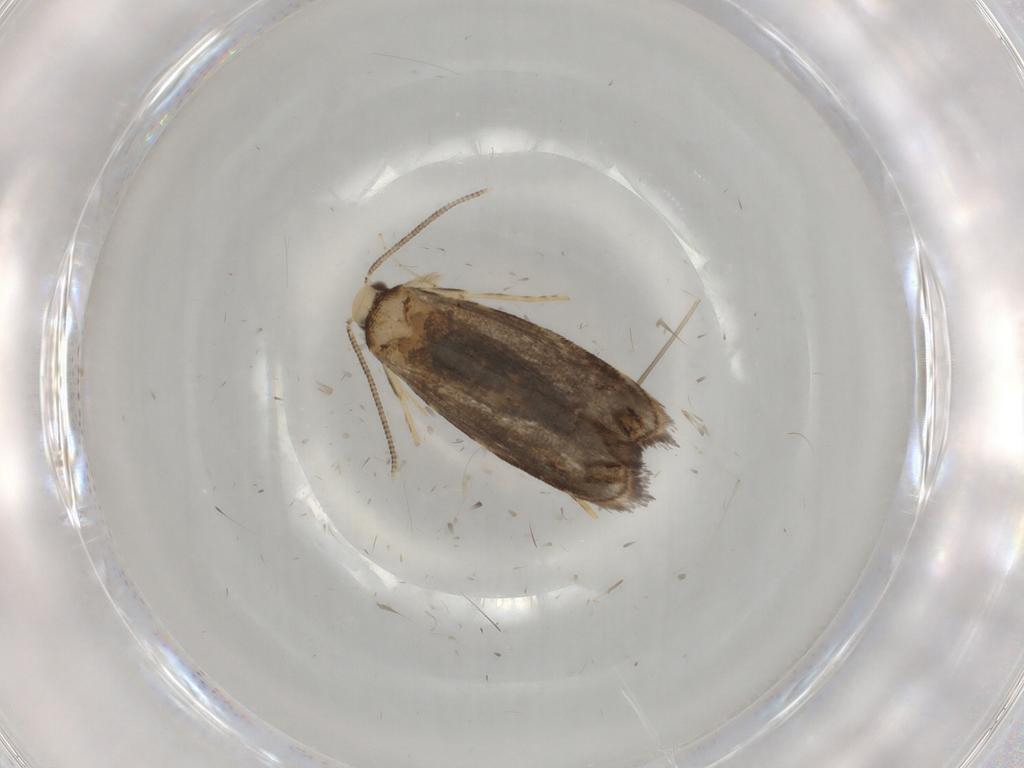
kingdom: Animalia
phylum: Arthropoda
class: Insecta
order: Lepidoptera
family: Dryadaulidae
